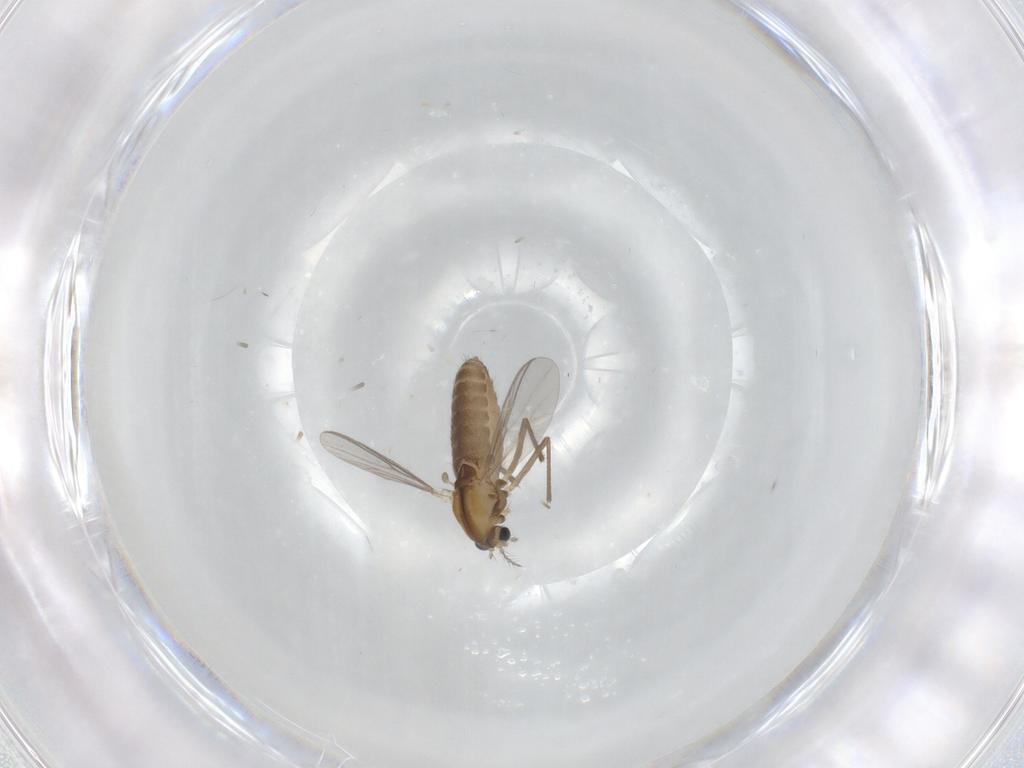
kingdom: Animalia
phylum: Arthropoda
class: Insecta
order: Diptera
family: Chironomidae
